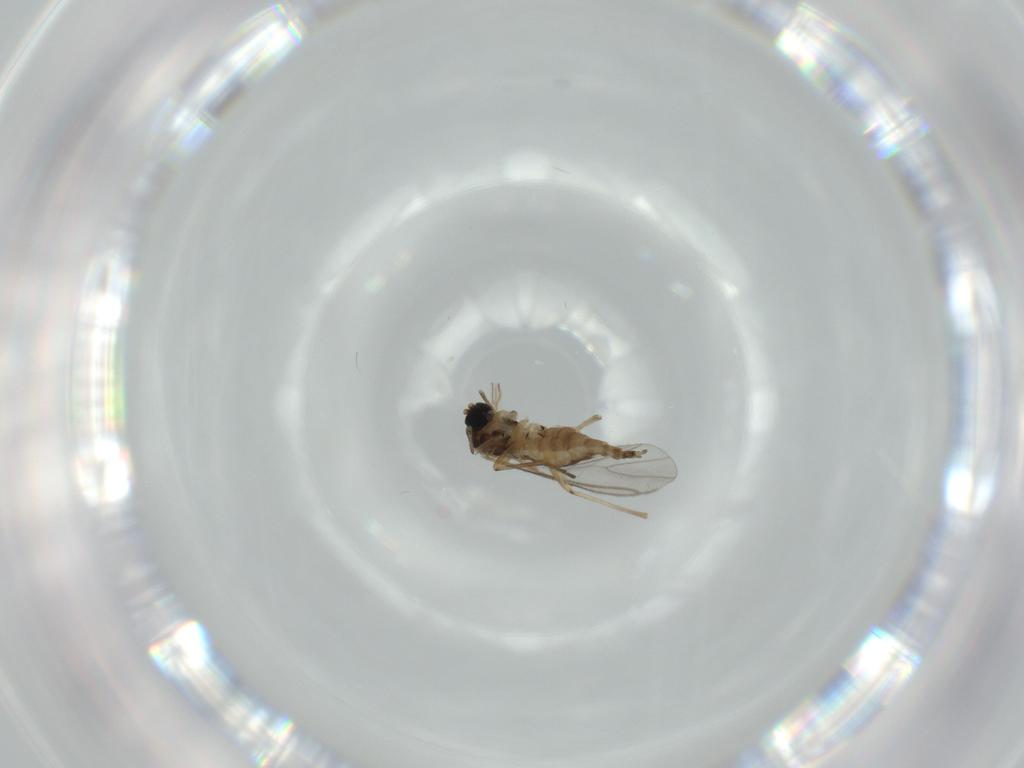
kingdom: Animalia
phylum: Arthropoda
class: Insecta
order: Diptera
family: Sciaridae
